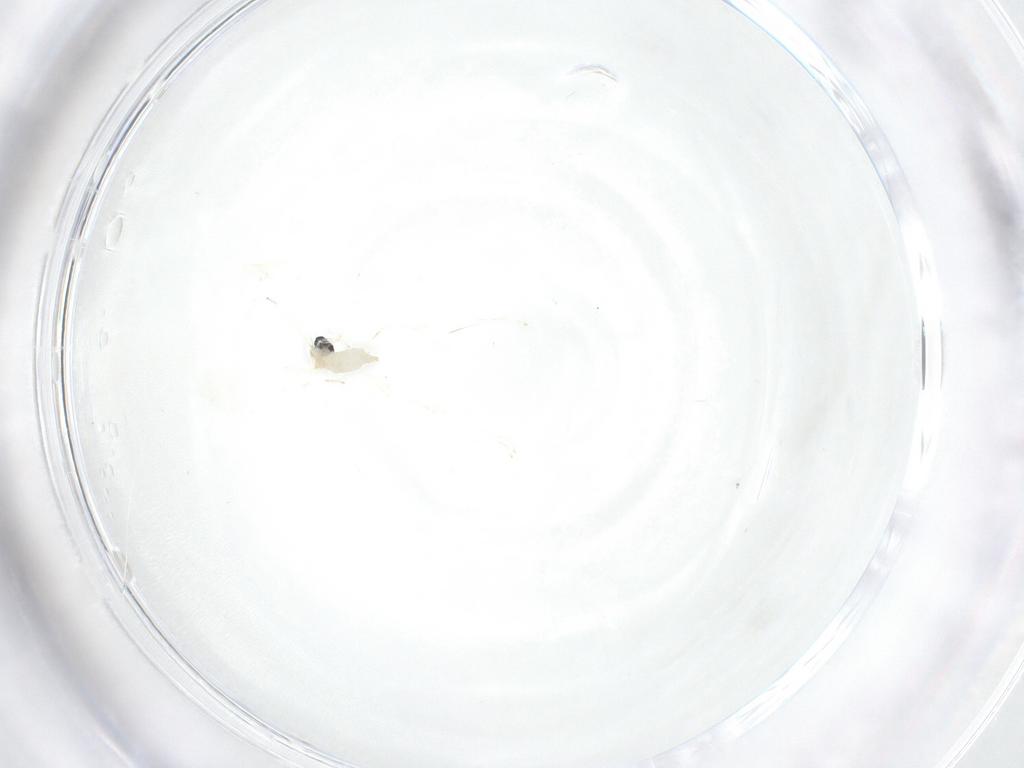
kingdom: Animalia
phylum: Arthropoda
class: Insecta
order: Diptera
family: Cecidomyiidae
